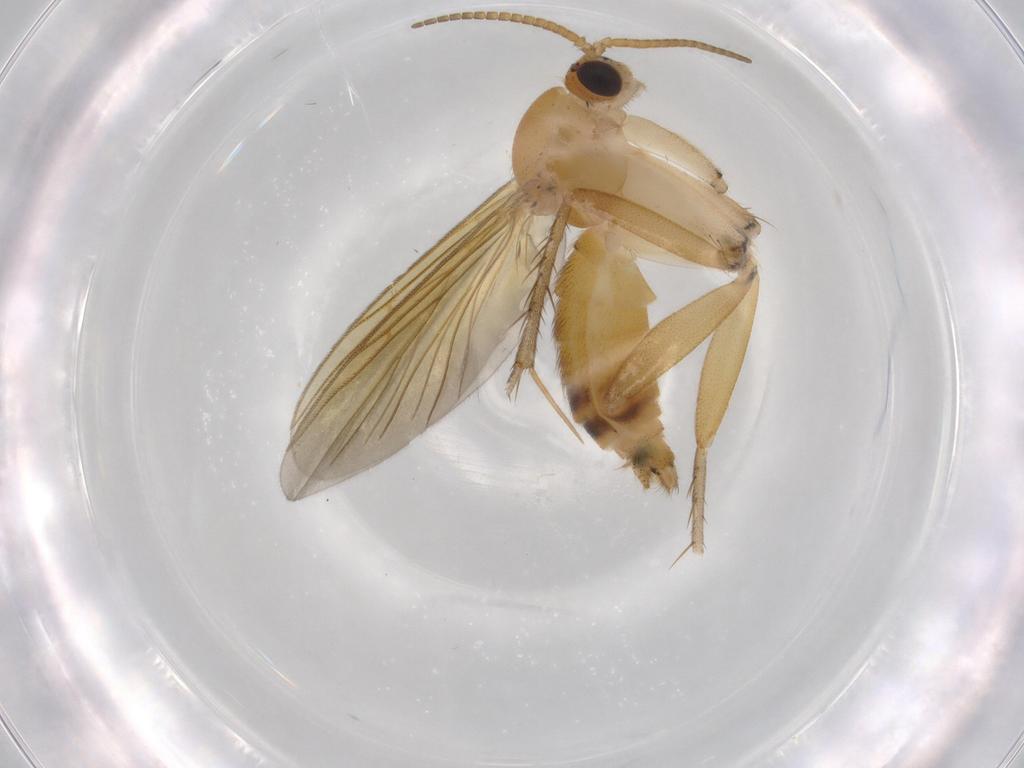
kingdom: Animalia
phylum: Arthropoda
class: Insecta
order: Diptera
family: Mycetophilidae
